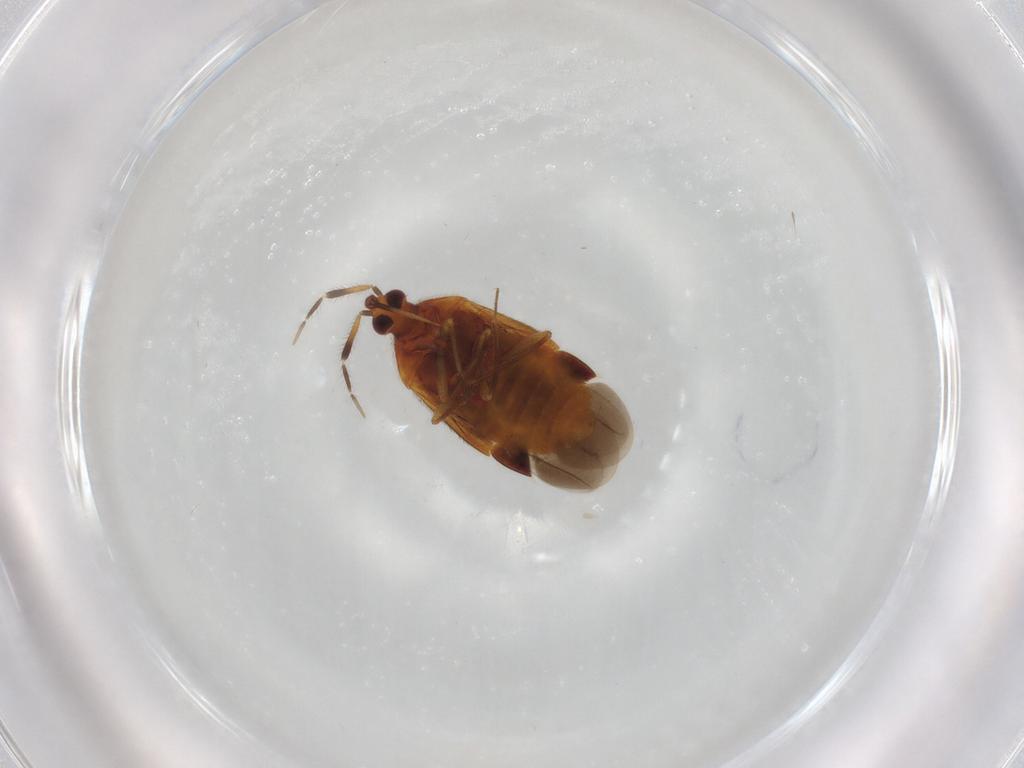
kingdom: Animalia
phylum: Arthropoda
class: Insecta
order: Hemiptera
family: Anthocoridae
